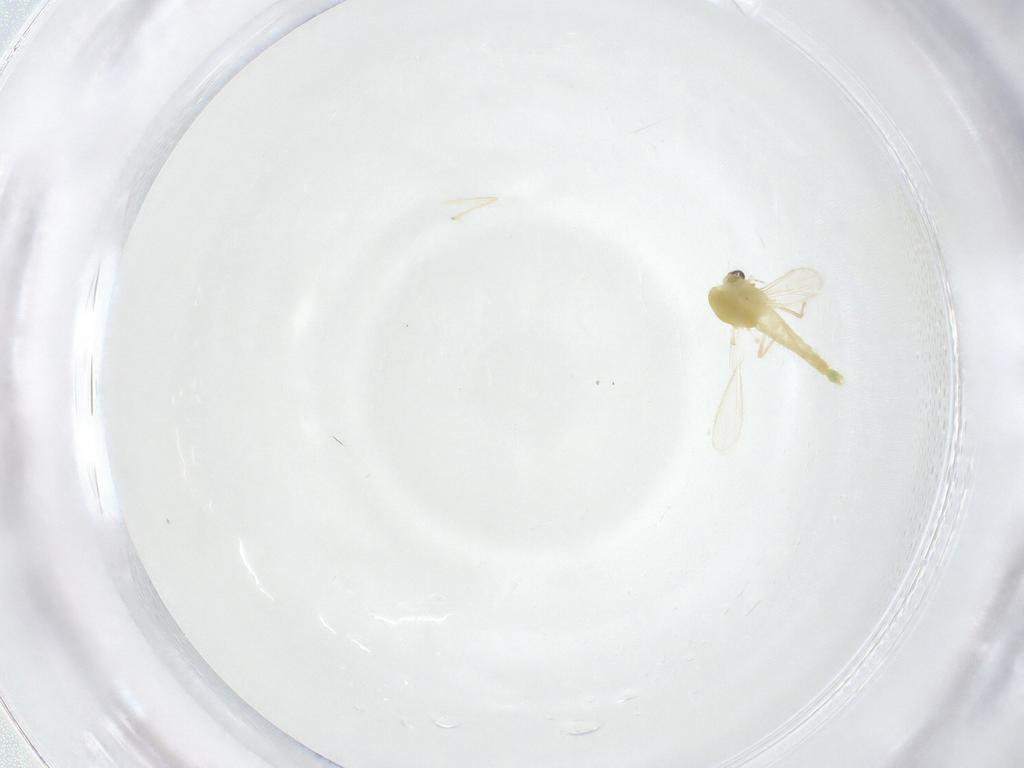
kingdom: Animalia
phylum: Arthropoda
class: Insecta
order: Diptera
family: Chironomidae
